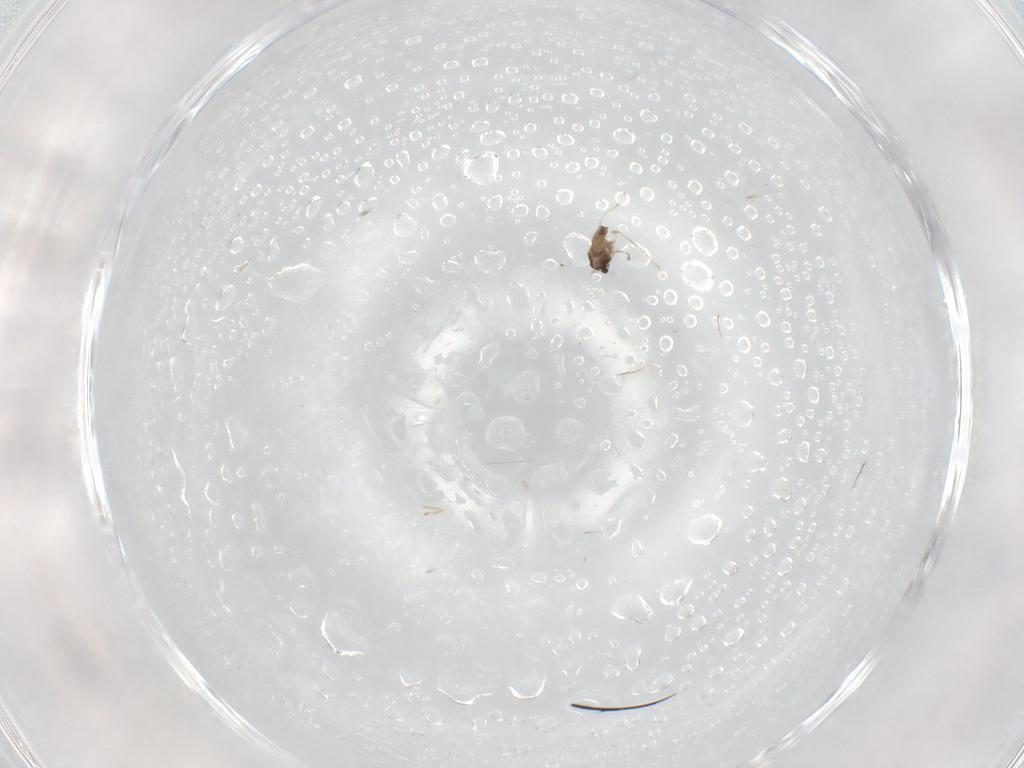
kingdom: Animalia
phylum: Arthropoda
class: Insecta
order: Diptera
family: Cecidomyiidae
